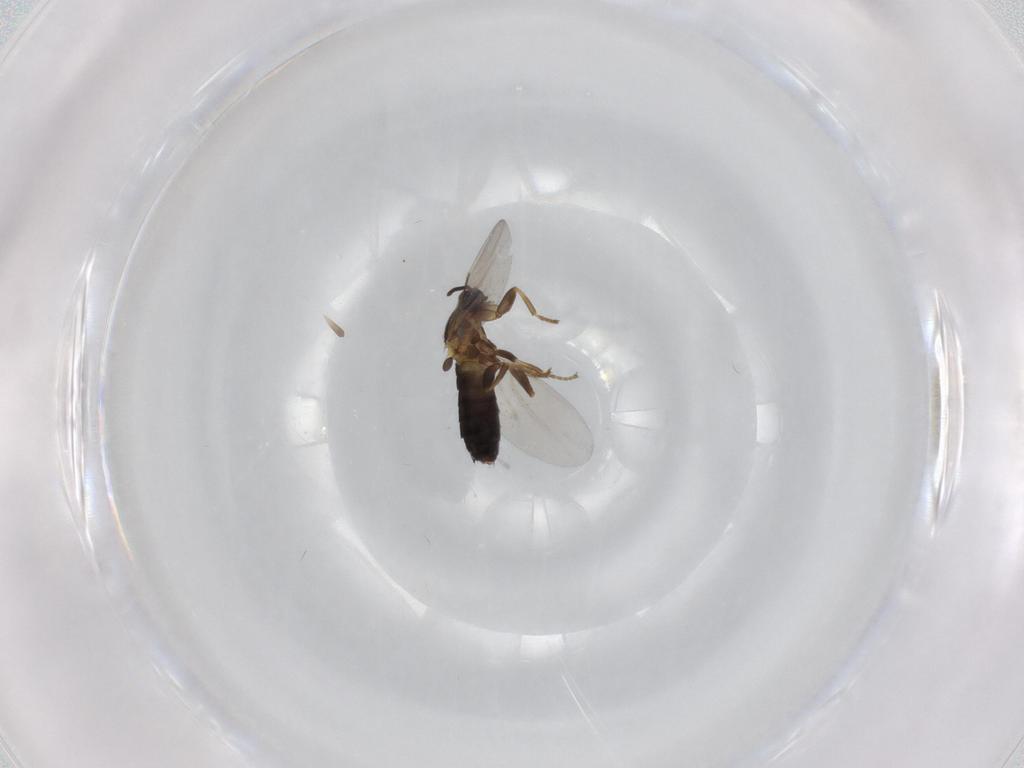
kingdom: Animalia
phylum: Arthropoda
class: Insecta
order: Diptera
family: Scatopsidae
